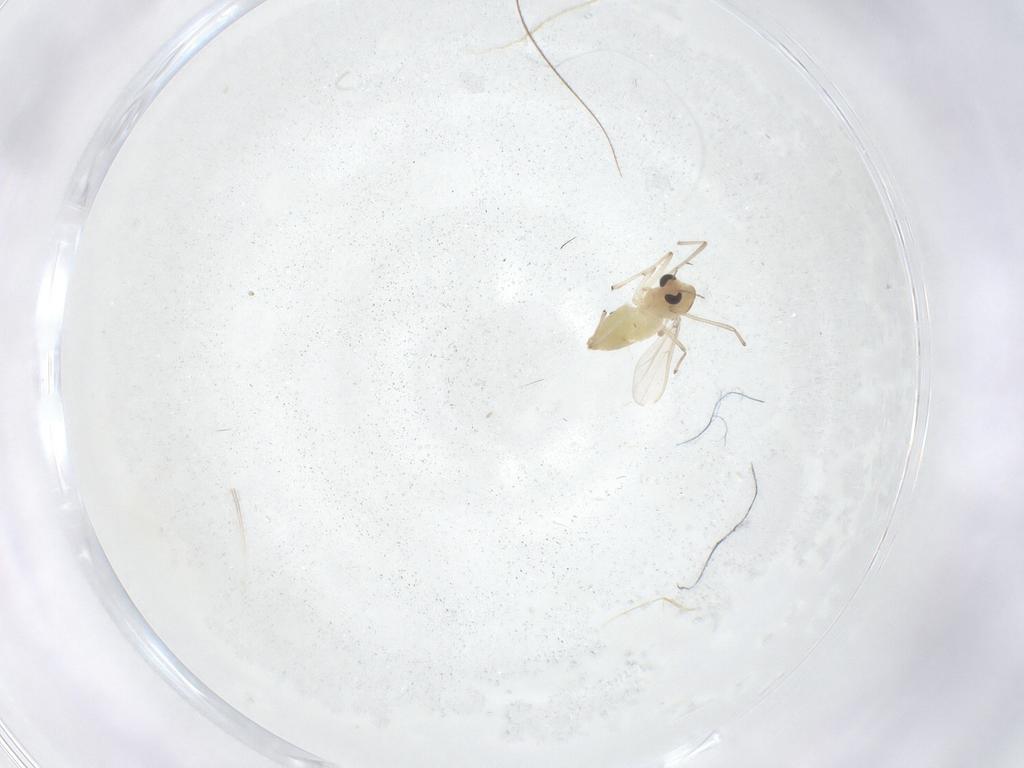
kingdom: Animalia
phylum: Arthropoda
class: Insecta
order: Diptera
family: Chironomidae
